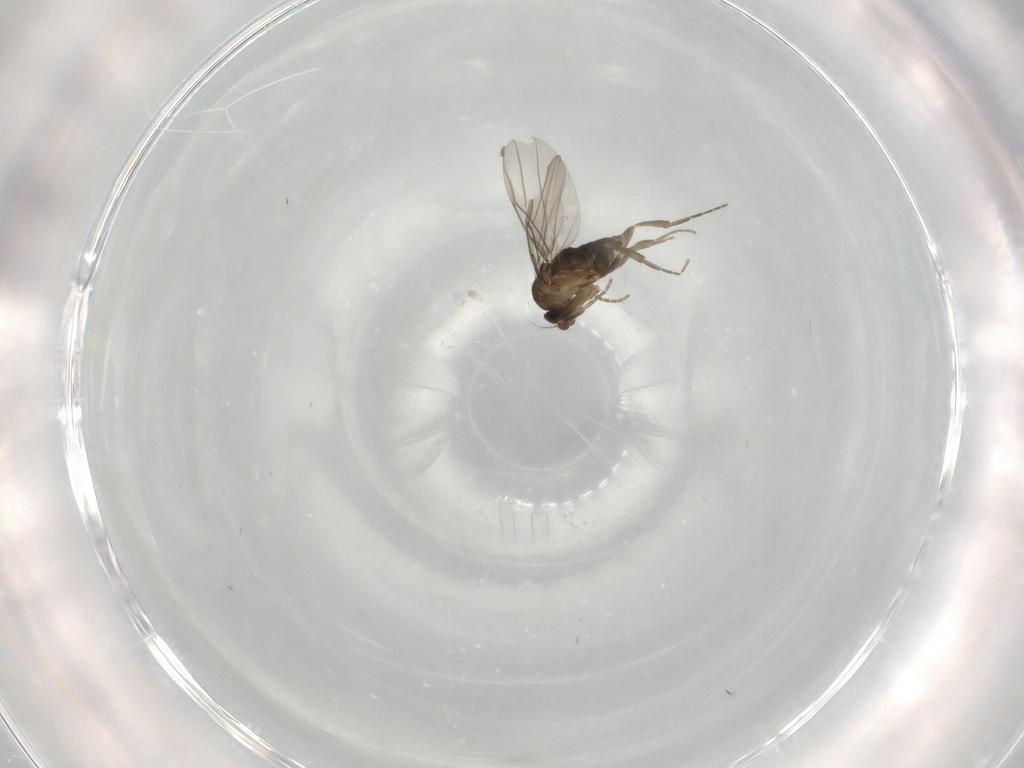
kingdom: Animalia
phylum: Arthropoda
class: Insecta
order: Diptera
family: Phoridae
